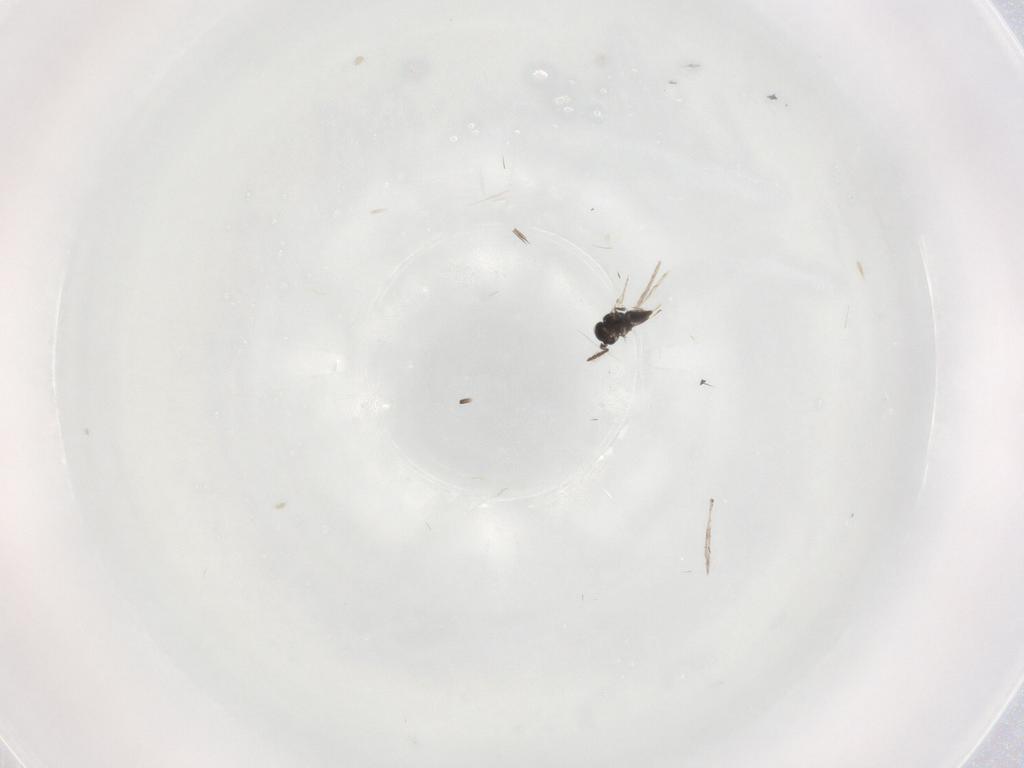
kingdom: Animalia
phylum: Arthropoda
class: Insecta
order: Hymenoptera
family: Scelionidae
